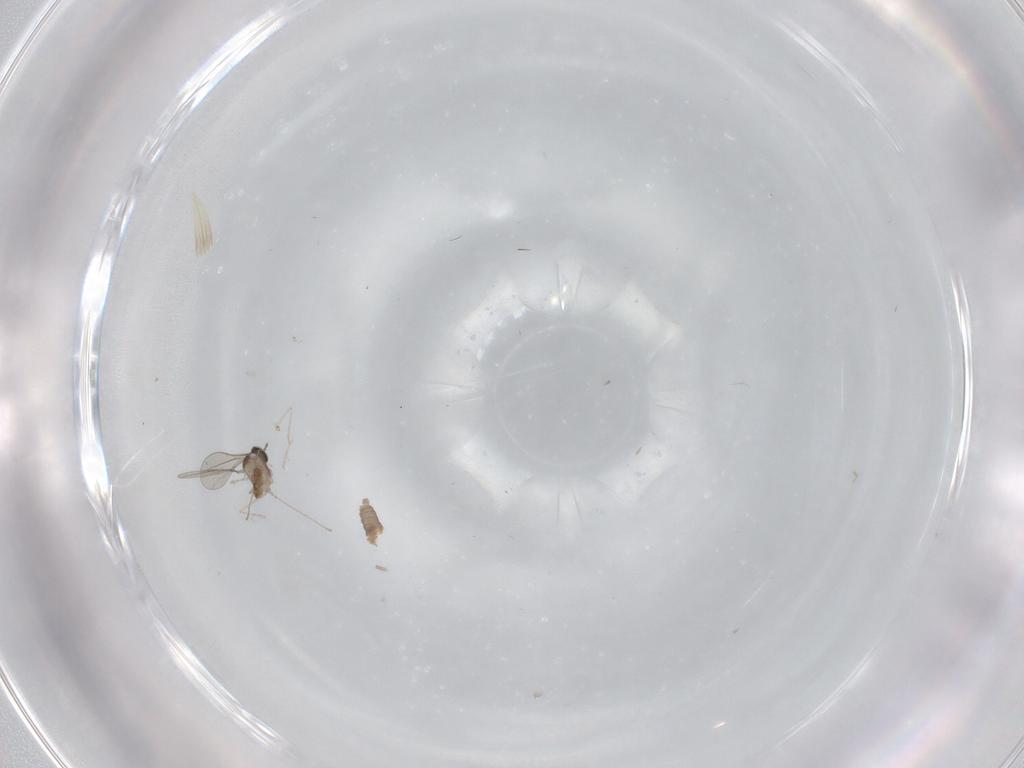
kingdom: Animalia
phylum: Arthropoda
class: Insecta
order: Diptera
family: Cecidomyiidae
